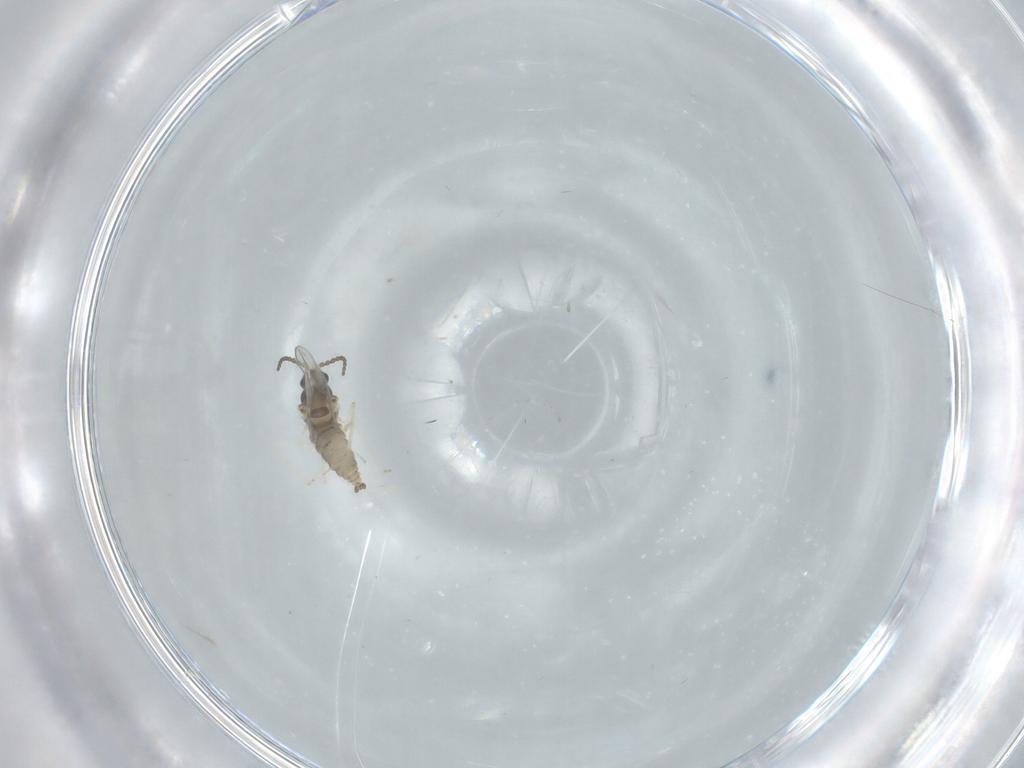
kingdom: Animalia
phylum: Arthropoda
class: Insecta
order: Diptera
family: Cecidomyiidae
